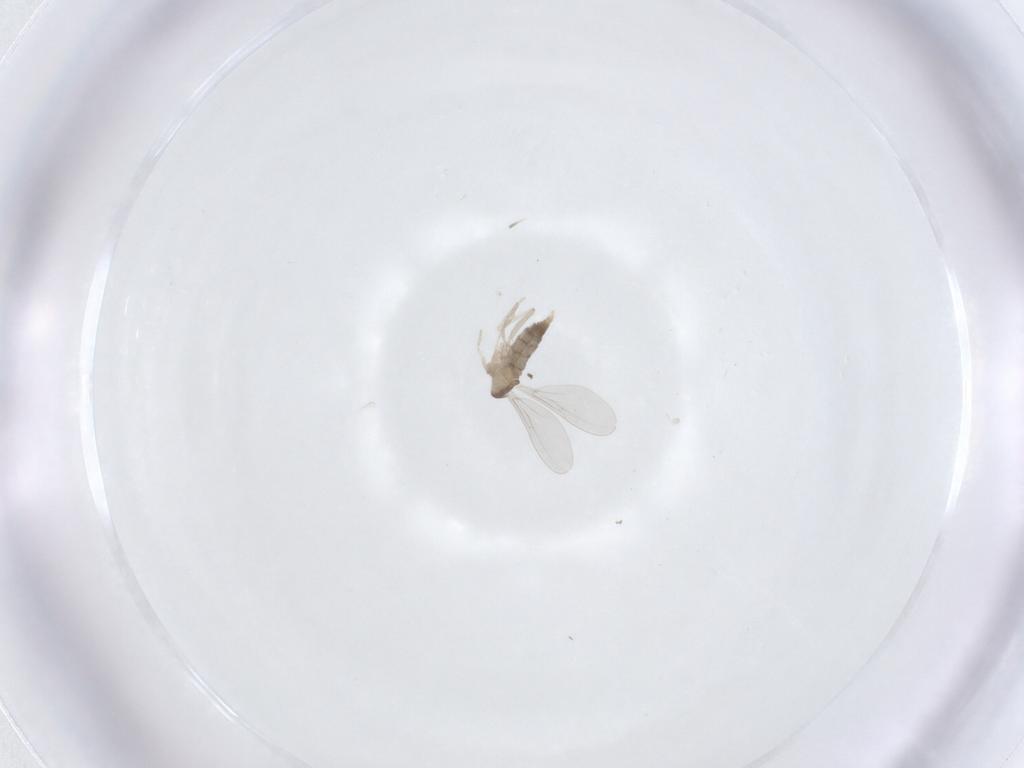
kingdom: Animalia
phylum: Arthropoda
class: Insecta
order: Diptera
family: Cecidomyiidae
